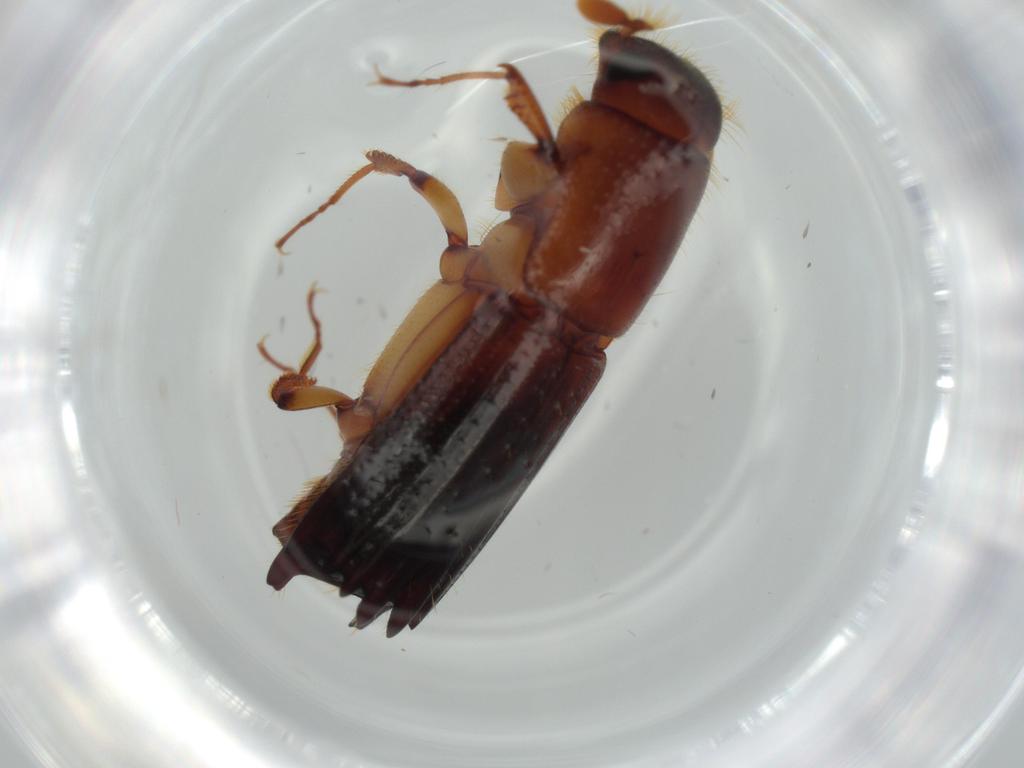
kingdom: Animalia
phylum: Arthropoda
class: Insecta
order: Coleoptera
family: Curculionidae
